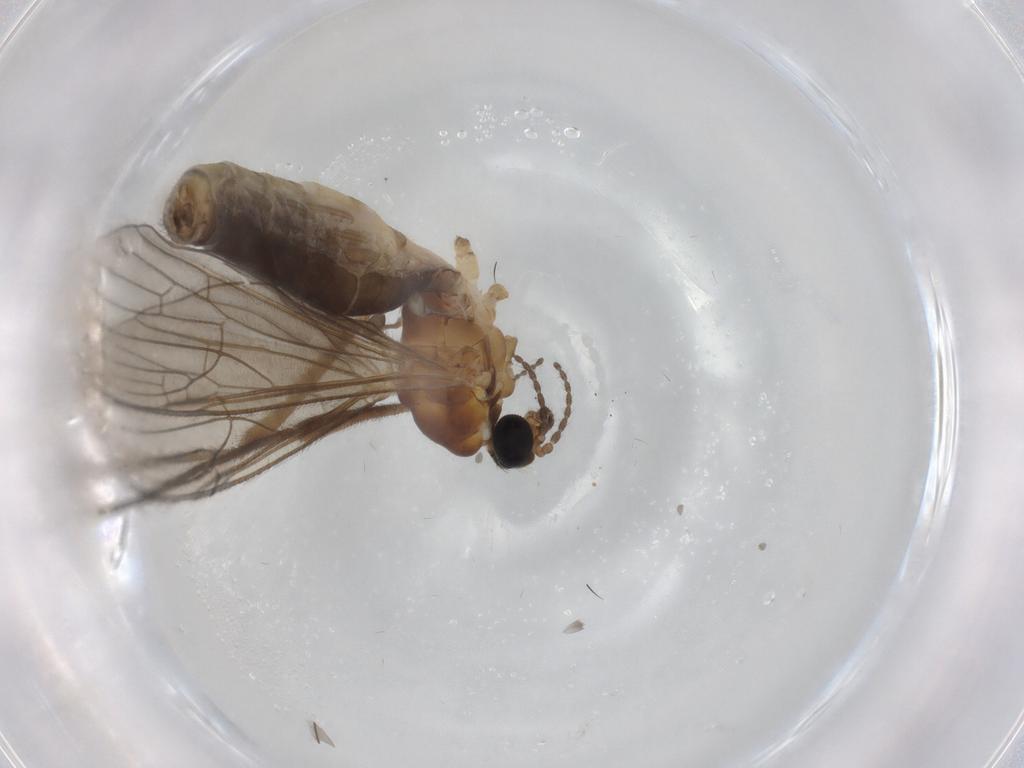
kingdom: Animalia
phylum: Arthropoda
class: Insecta
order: Diptera
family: Limoniidae
